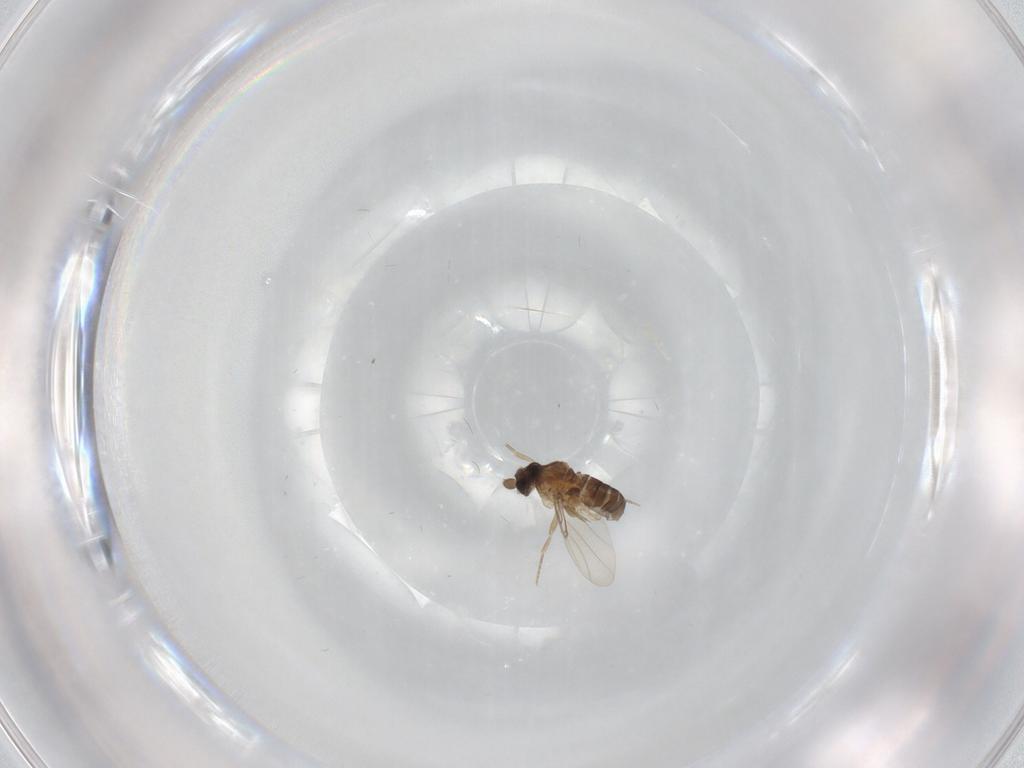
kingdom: Animalia
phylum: Arthropoda
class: Insecta
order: Diptera
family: Phoridae
